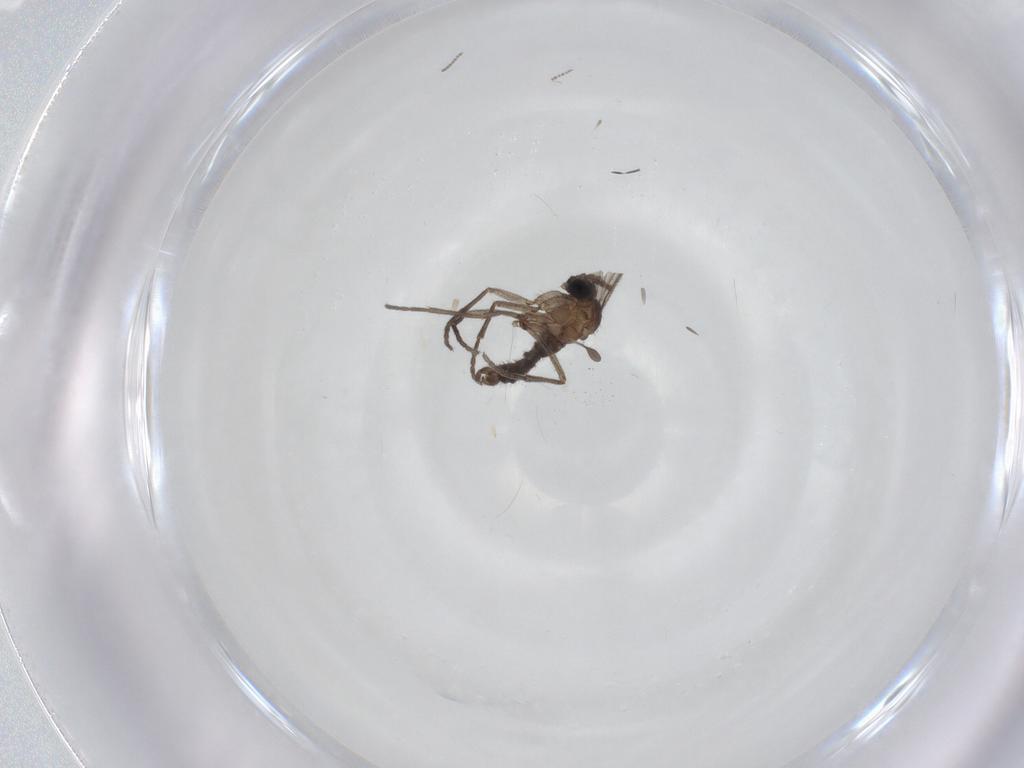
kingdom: Animalia
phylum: Arthropoda
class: Insecta
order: Diptera
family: Sciaridae
